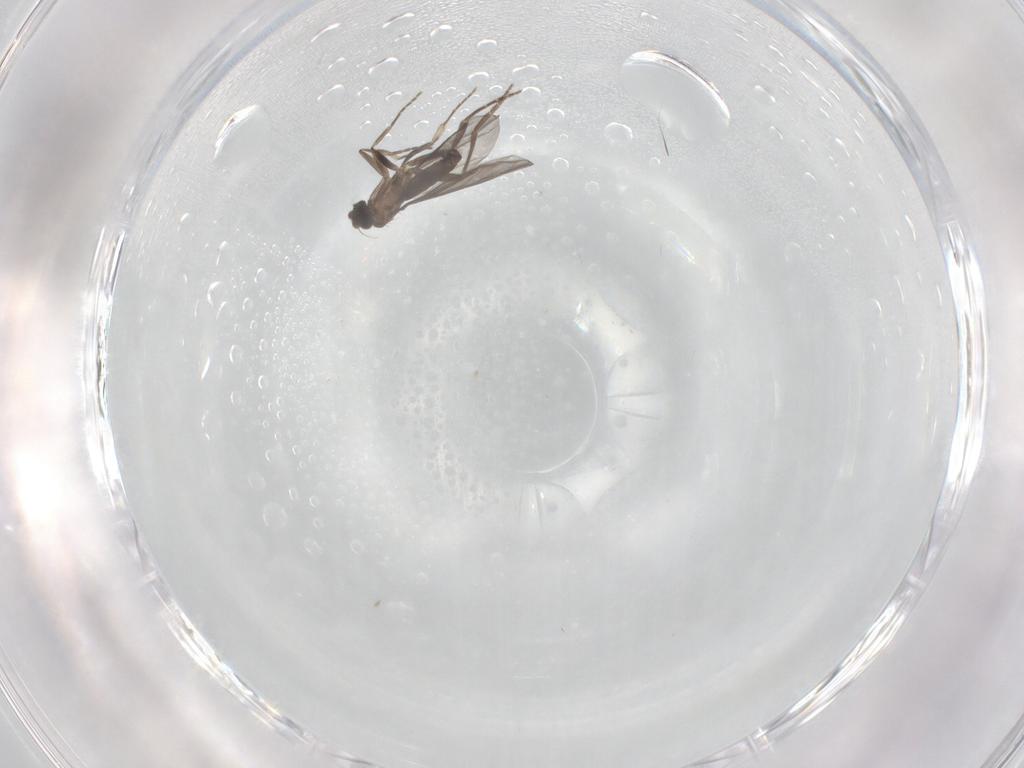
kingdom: Animalia
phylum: Arthropoda
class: Insecta
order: Diptera
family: Phoridae
